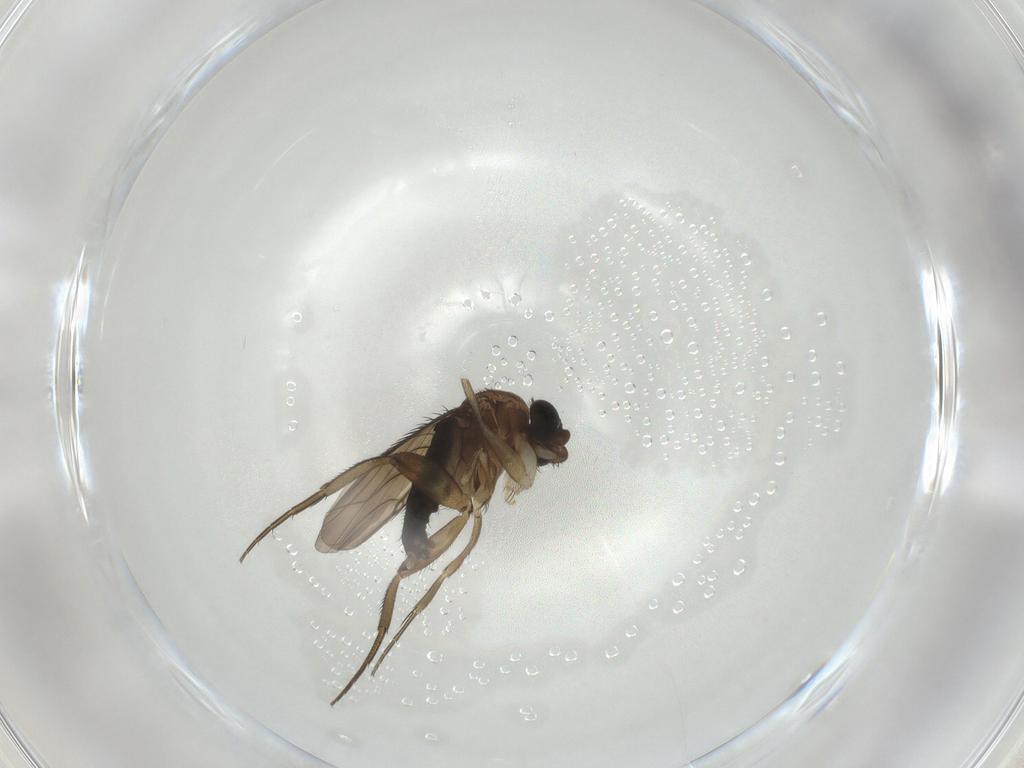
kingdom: Animalia
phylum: Arthropoda
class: Insecta
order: Diptera
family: Phoridae
